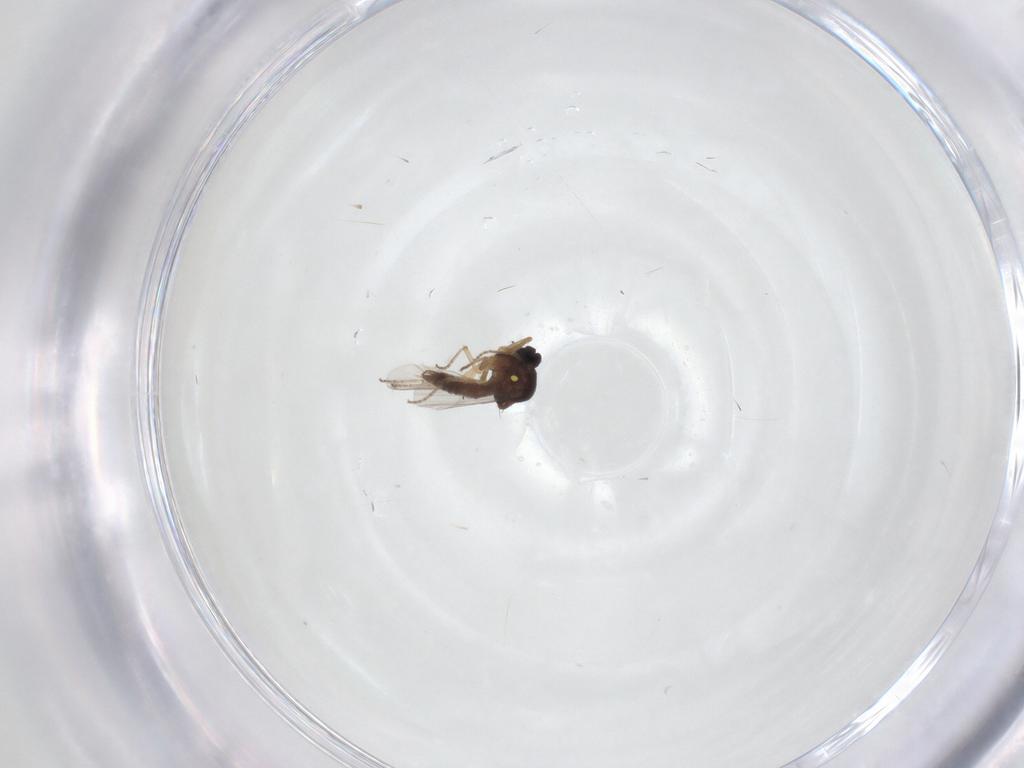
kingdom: Animalia
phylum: Arthropoda
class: Insecta
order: Diptera
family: Ceratopogonidae
